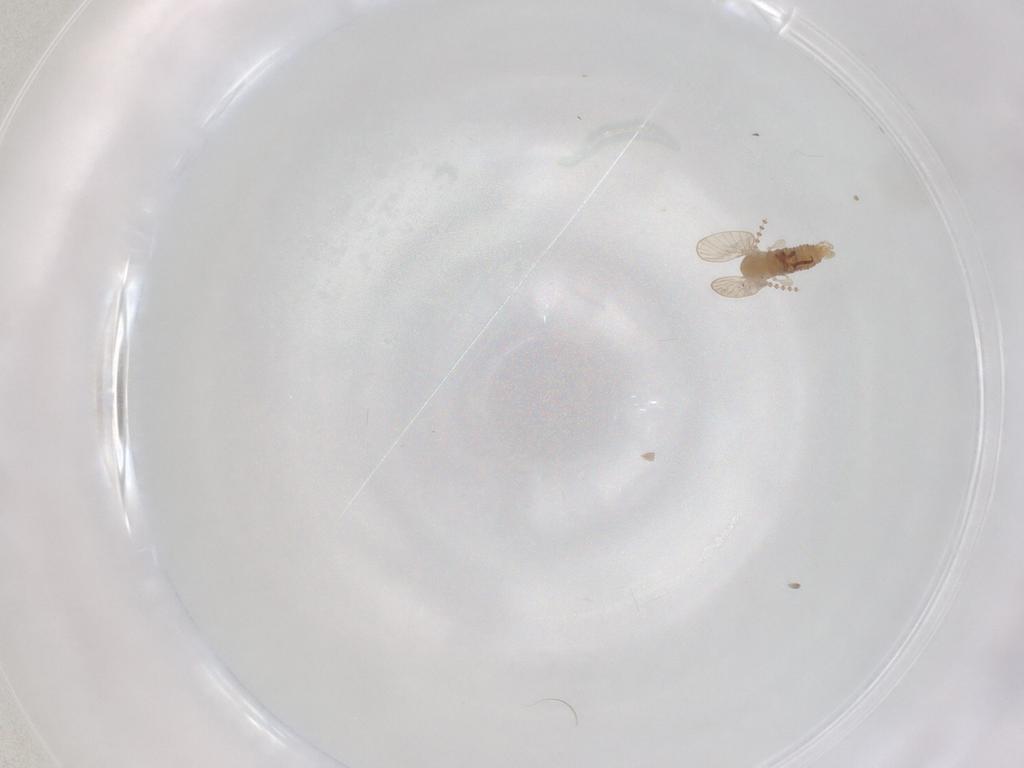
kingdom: Animalia
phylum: Arthropoda
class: Insecta
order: Diptera
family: Psychodidae
